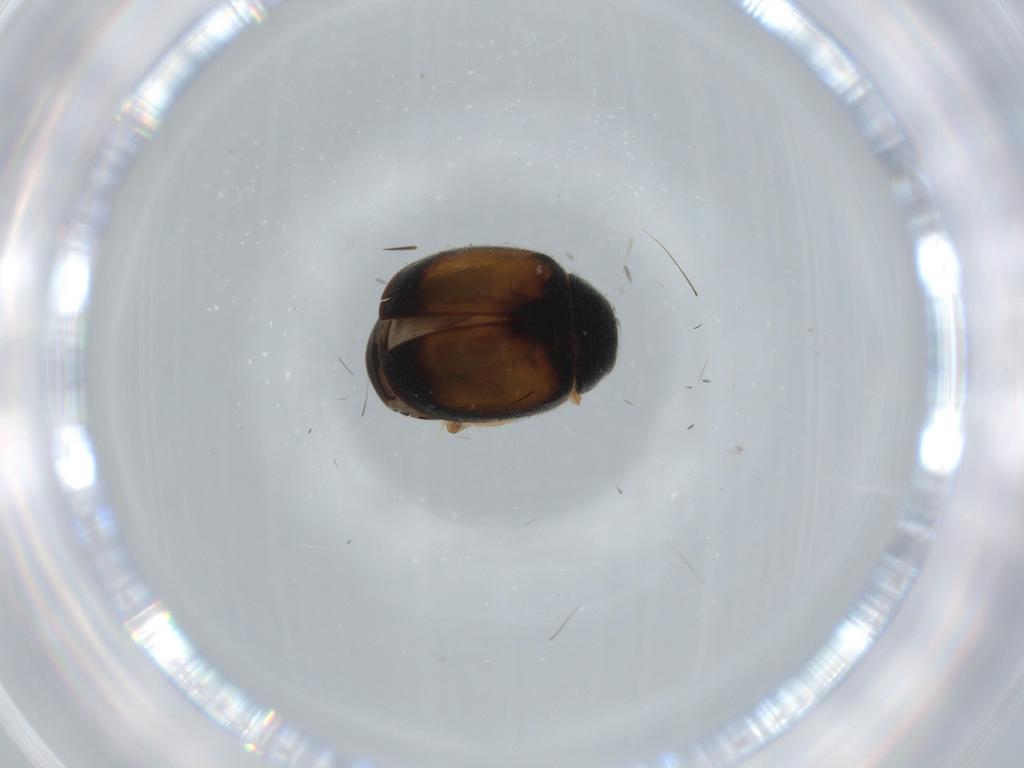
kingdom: Animalia
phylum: Arthropoda
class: Insecta
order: Coleoptera
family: Coccinellidae
